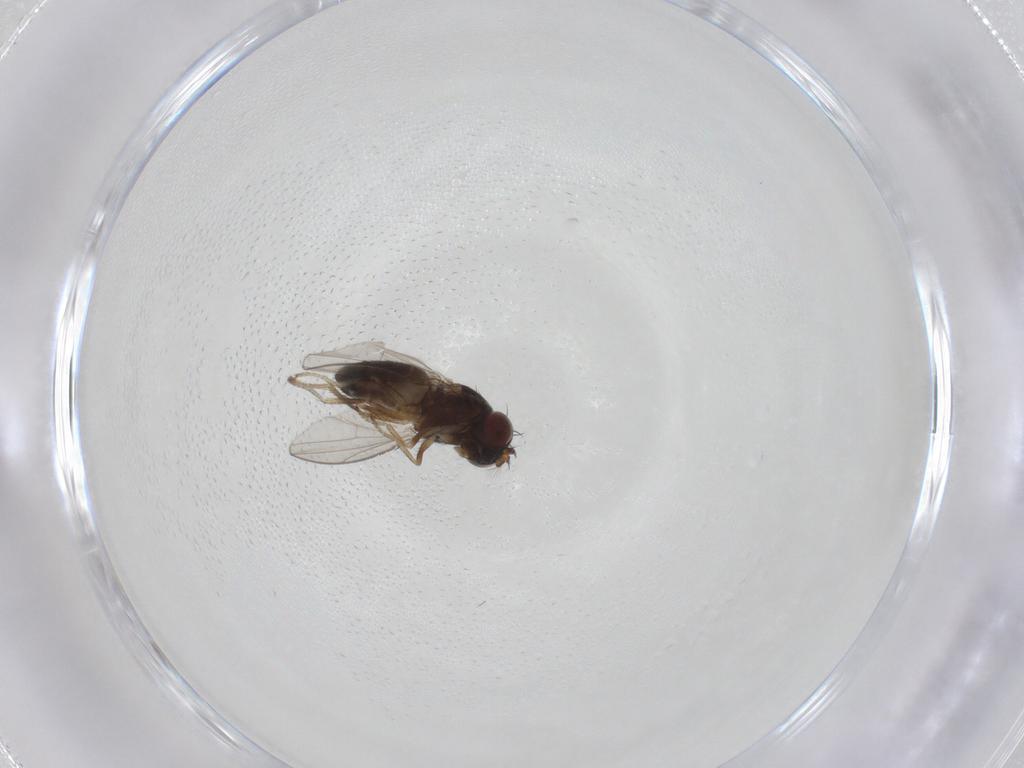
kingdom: Animalia
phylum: Arthropoda
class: Insecta
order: Diptera
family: Ephydridae
